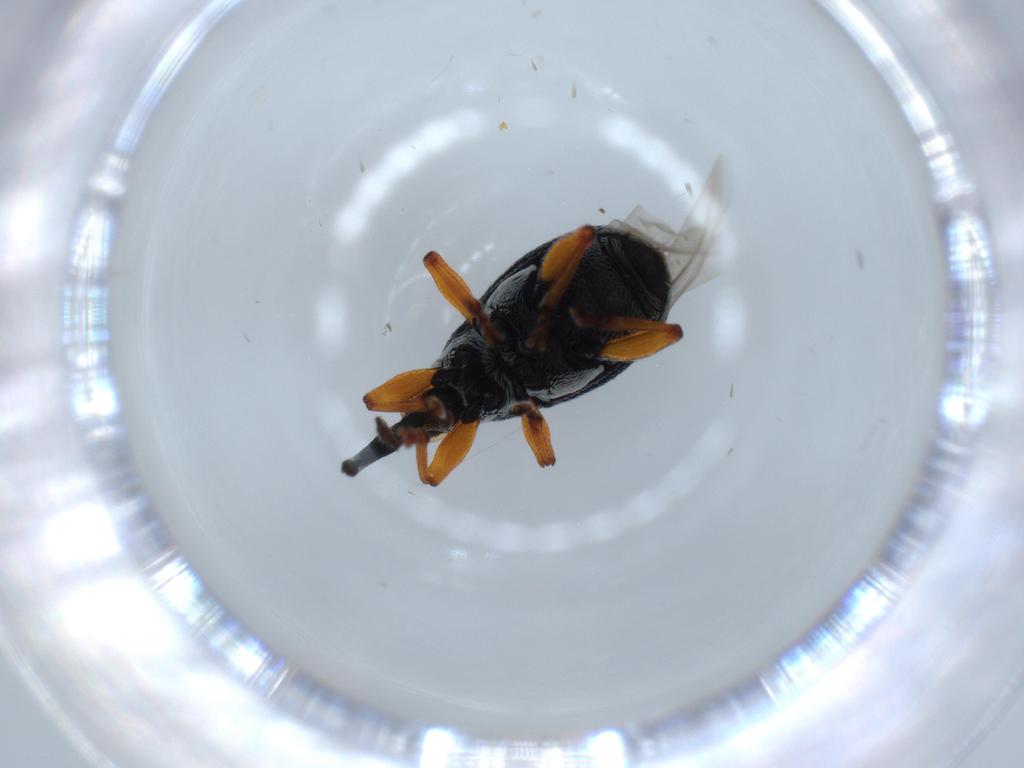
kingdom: Animalia
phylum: Arthropoda
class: Insecta
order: Coleoptera
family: Brentidae
